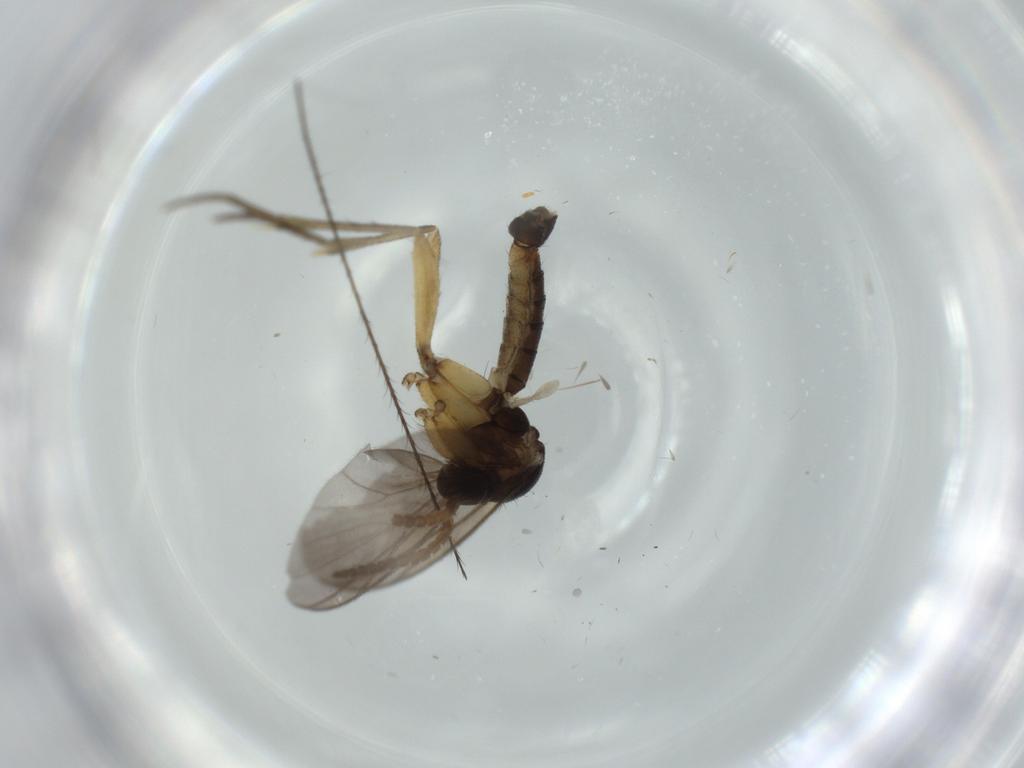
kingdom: Animalia
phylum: Arthropoda
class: Insecta
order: Diptera
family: Mycetophilidae
